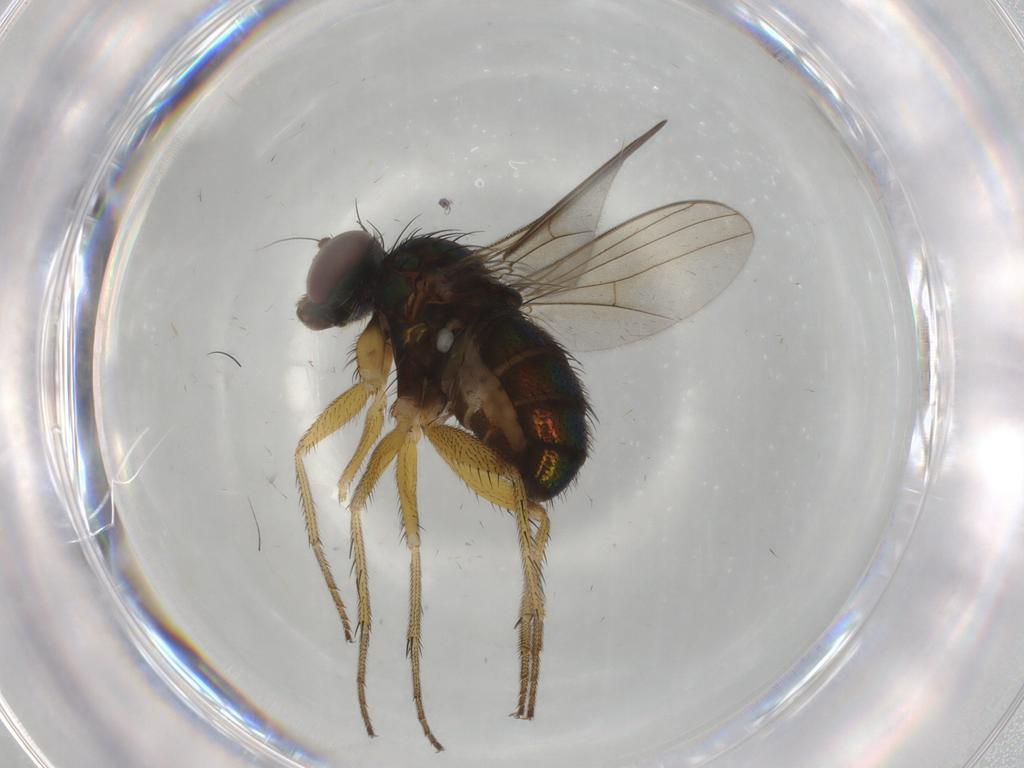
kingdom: Animalia
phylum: Arthropoda
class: Insecta
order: Diptera
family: Dolichopodidae
